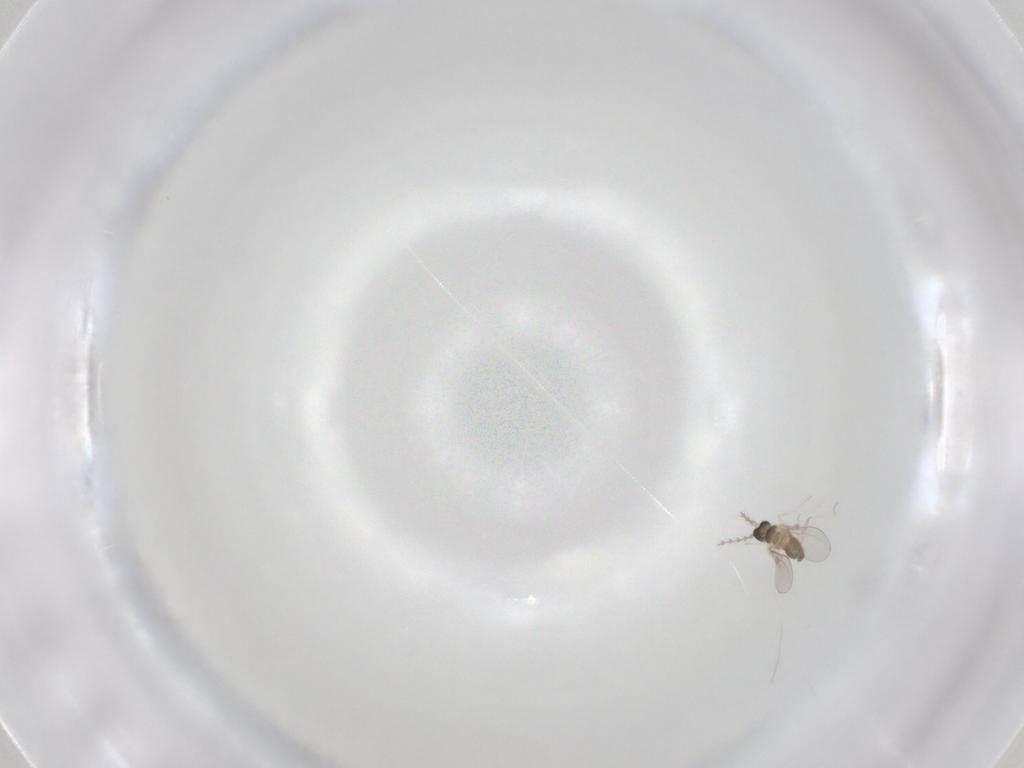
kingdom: Animalia
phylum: Arthropoda
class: Insecta
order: Diptera
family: Cecidomyiidae
